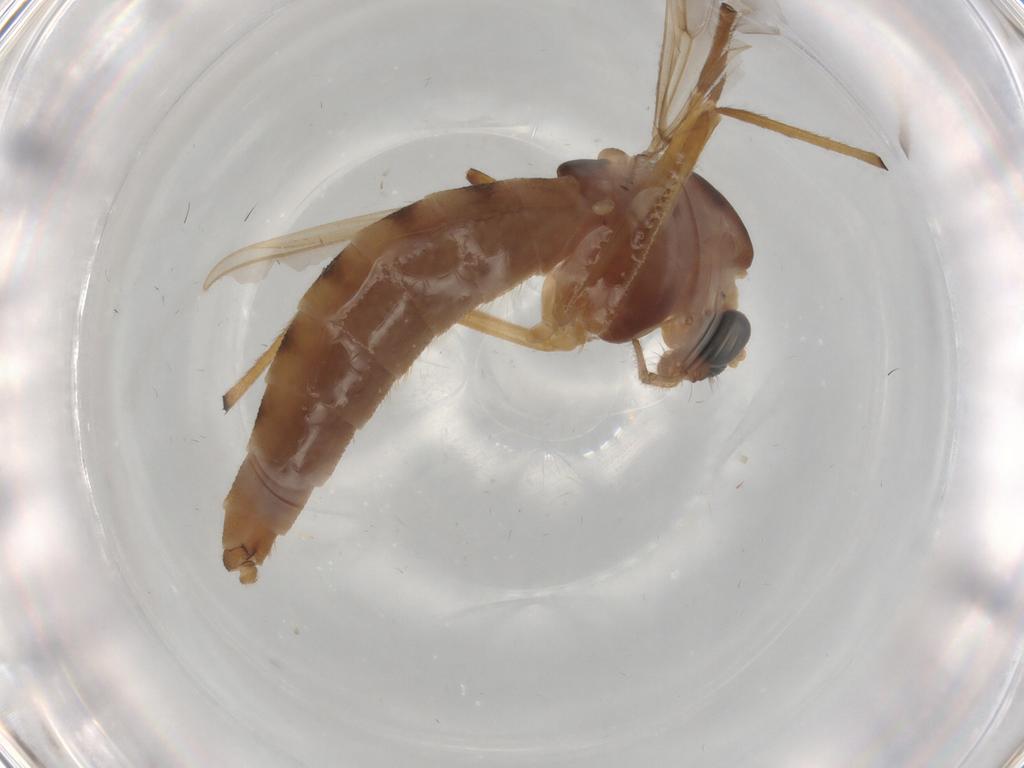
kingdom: Animalia
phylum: Arthropoda
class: Insecta
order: Diptera
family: Chironomidae
